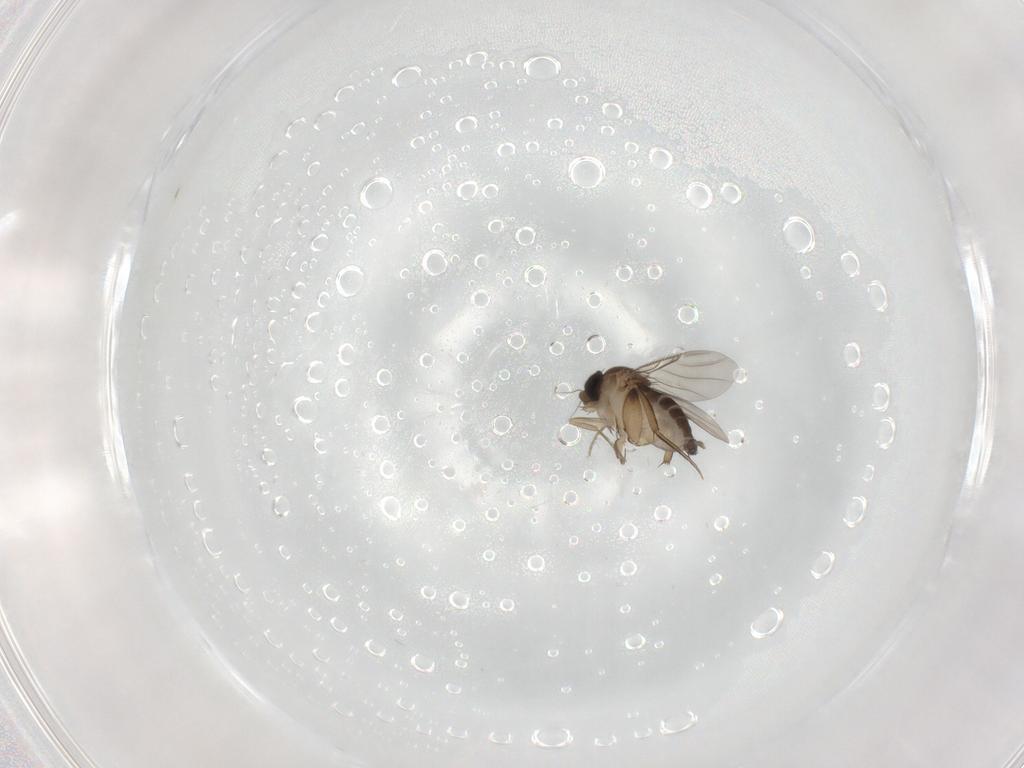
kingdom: Animalia
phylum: Arthropoda
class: Insecta
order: Diptera
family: Phoridae
